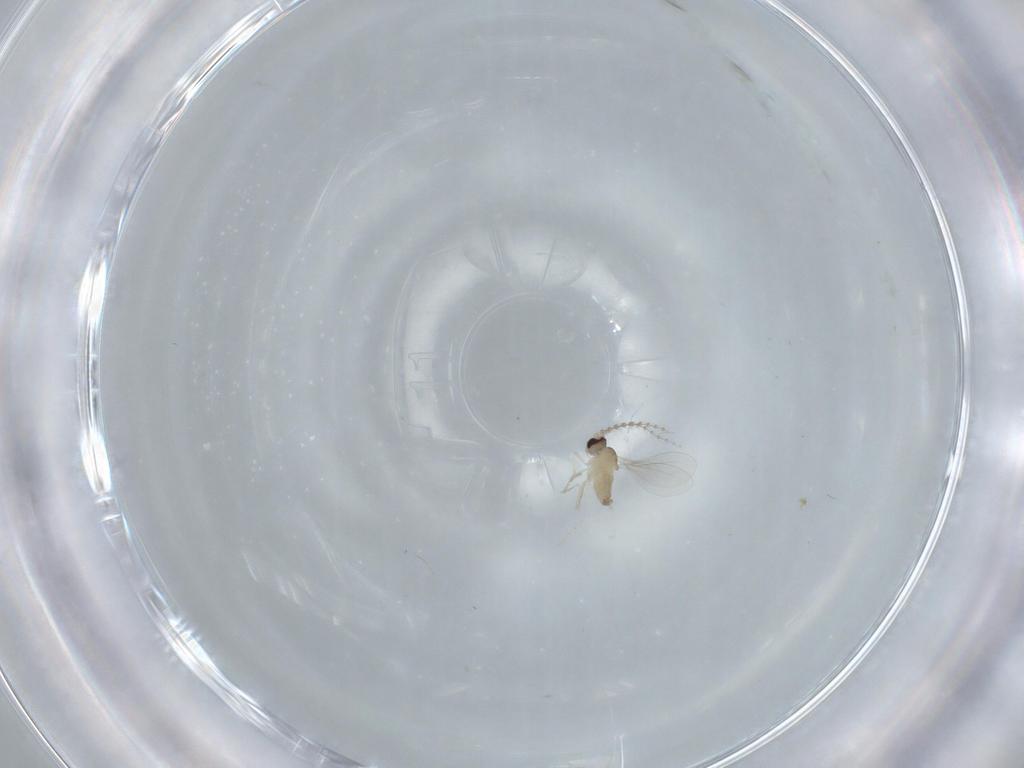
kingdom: Animalia
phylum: Arthropoda
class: Insecta
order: Diptera
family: Cecidomyiidae
